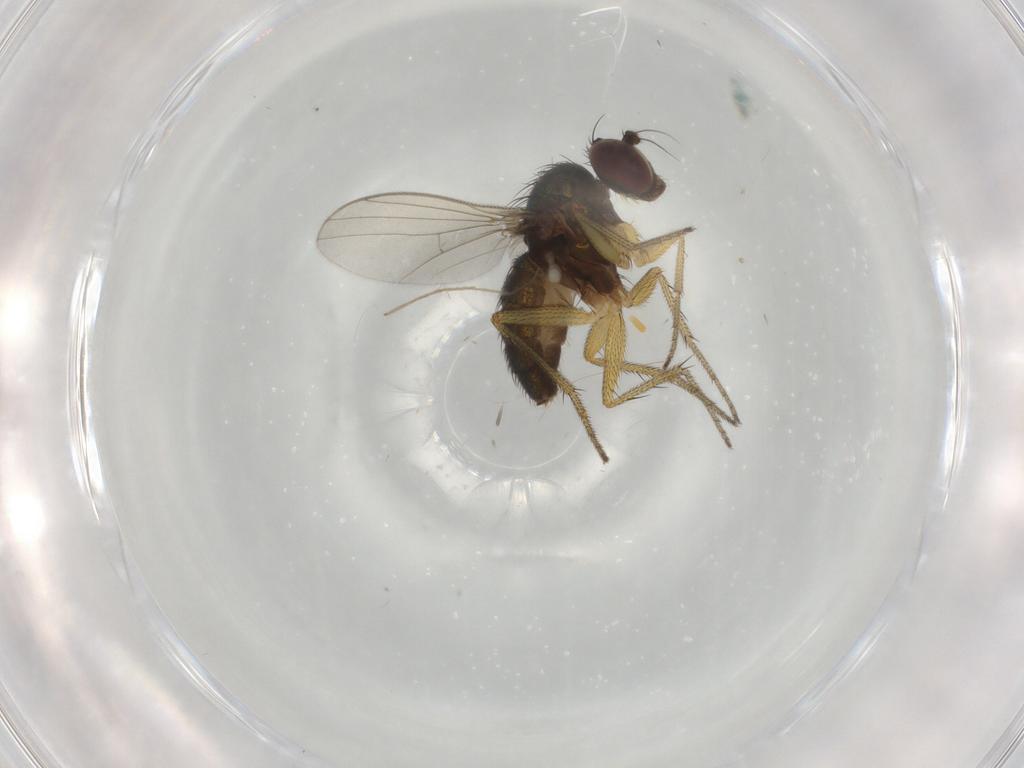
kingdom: Animalia
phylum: Arthropoda
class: Insecta
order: Diptera
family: Chironomidae
